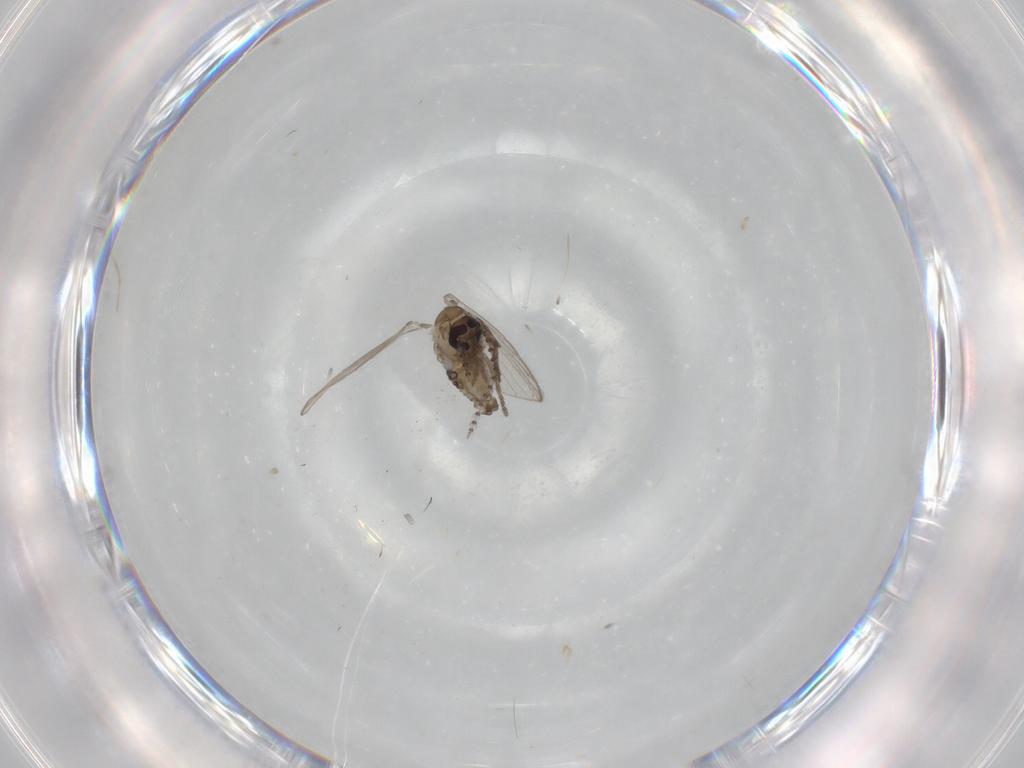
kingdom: Animalia
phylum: Arthropoda
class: Insecta
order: Diptera
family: Psychodidae
